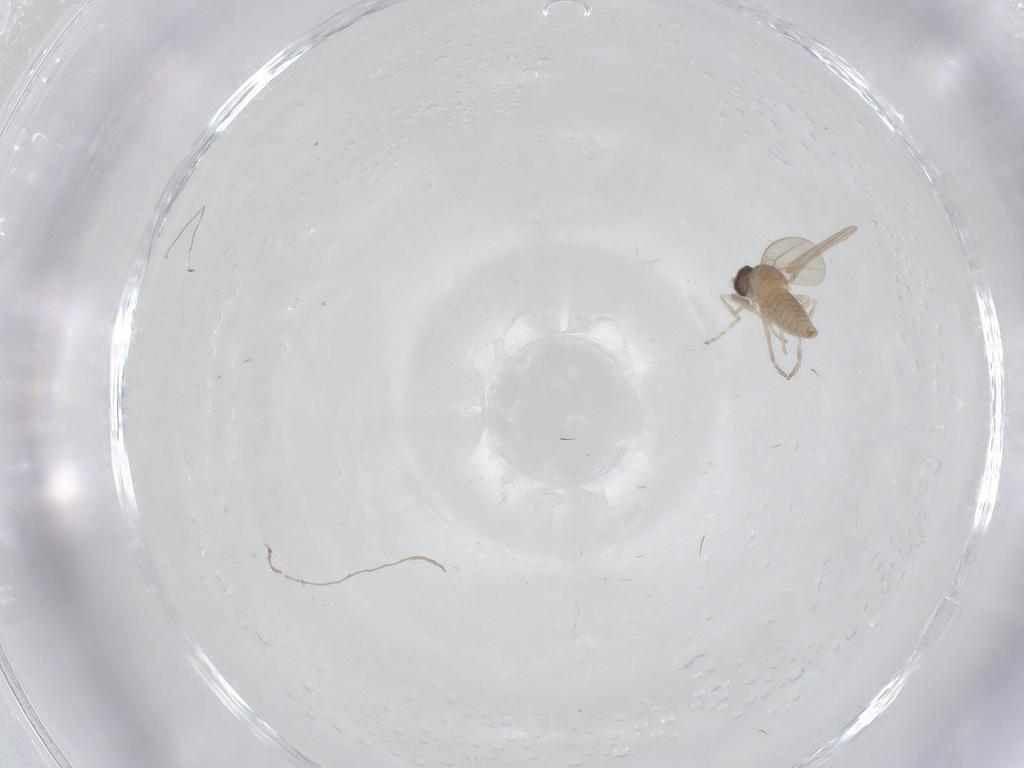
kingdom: Animalia
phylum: Arthropoda
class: Insecta
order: Diptera
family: Cecidomyiidae
